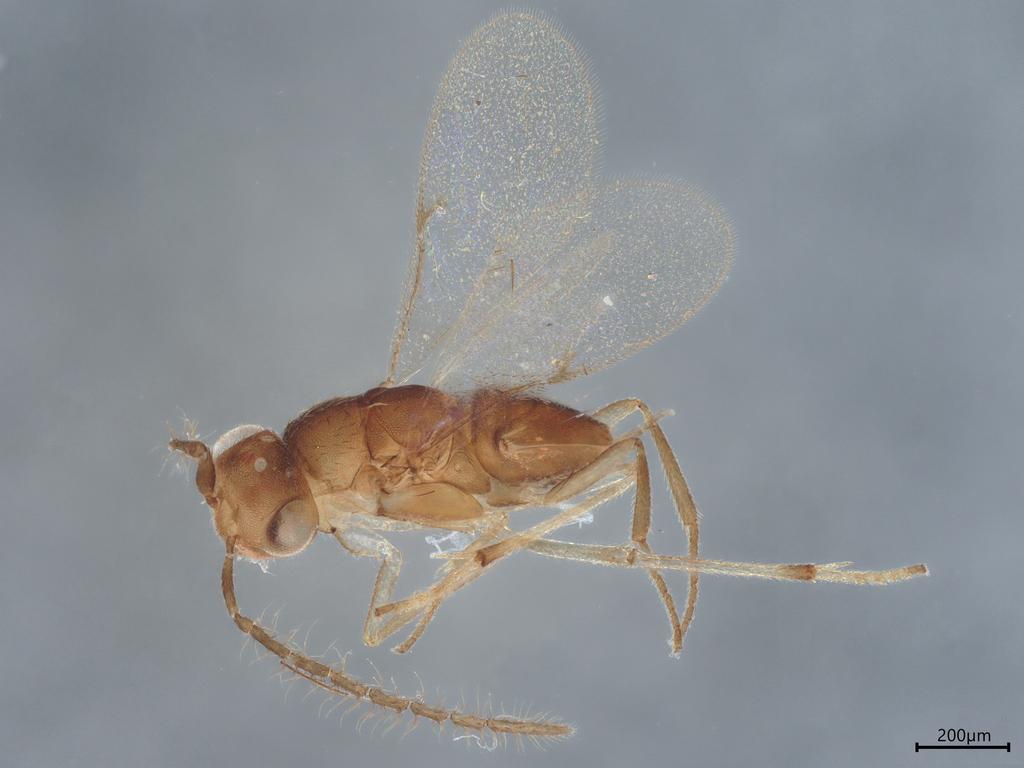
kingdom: Animalia
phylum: Arthropoda
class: Insecta
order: Hymenoptera
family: Encyrtidae
